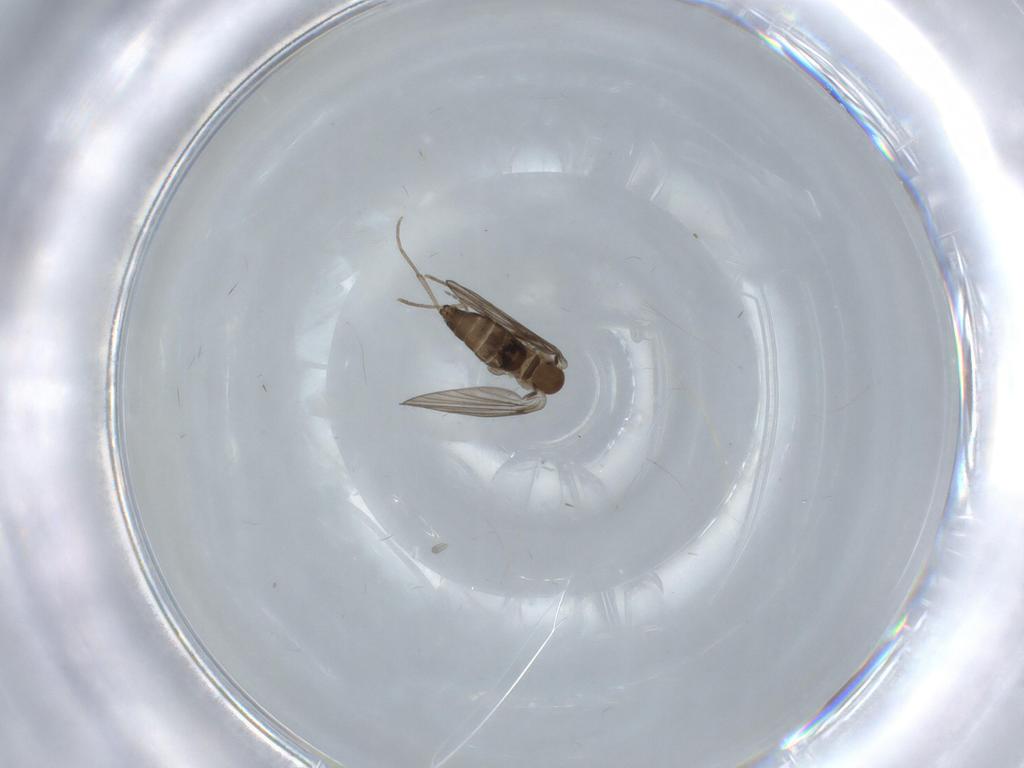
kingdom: Animalia
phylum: Arthropoda
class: Insecta
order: Diptera
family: Psychodidae
